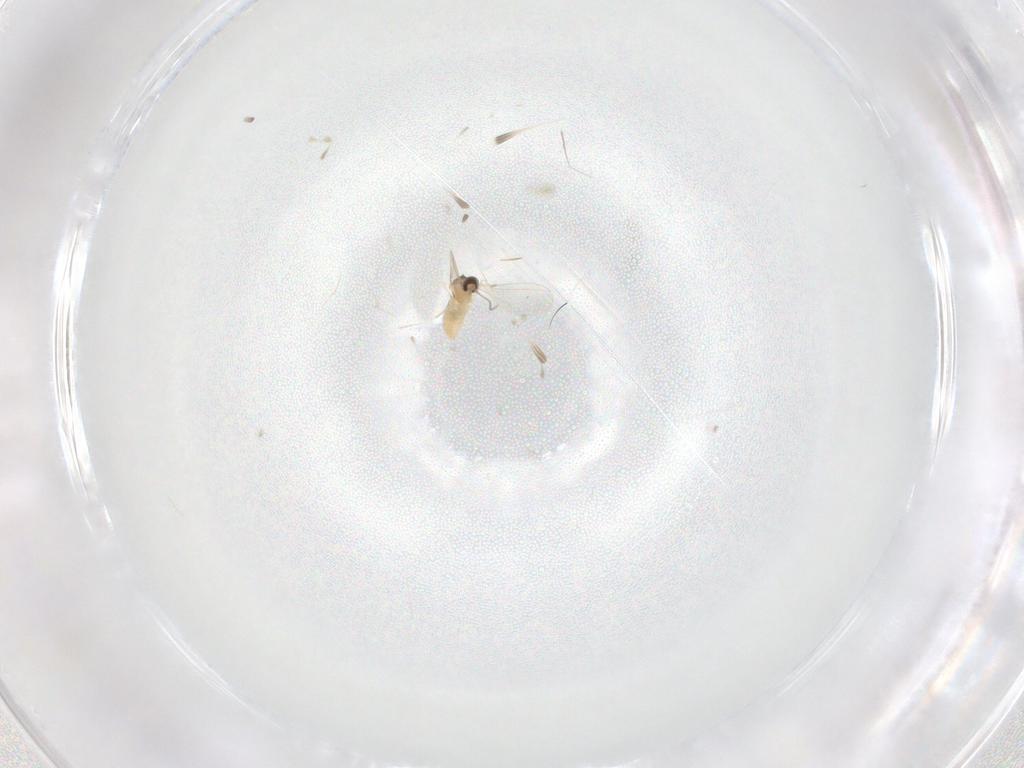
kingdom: Animalia
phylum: Arthropoda
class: Insecta
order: Diptera
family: Cecidomyiidae
